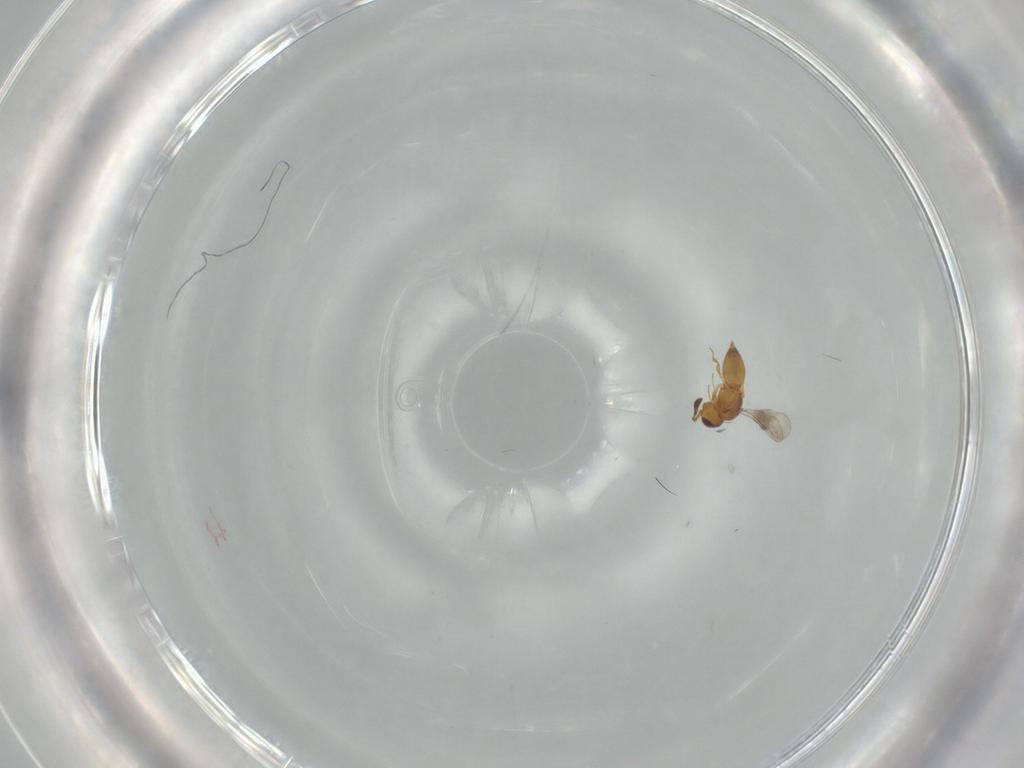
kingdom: Animalia
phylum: Arthropoda
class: Insecta
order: Hymenoptera
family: Ceraphronidae
